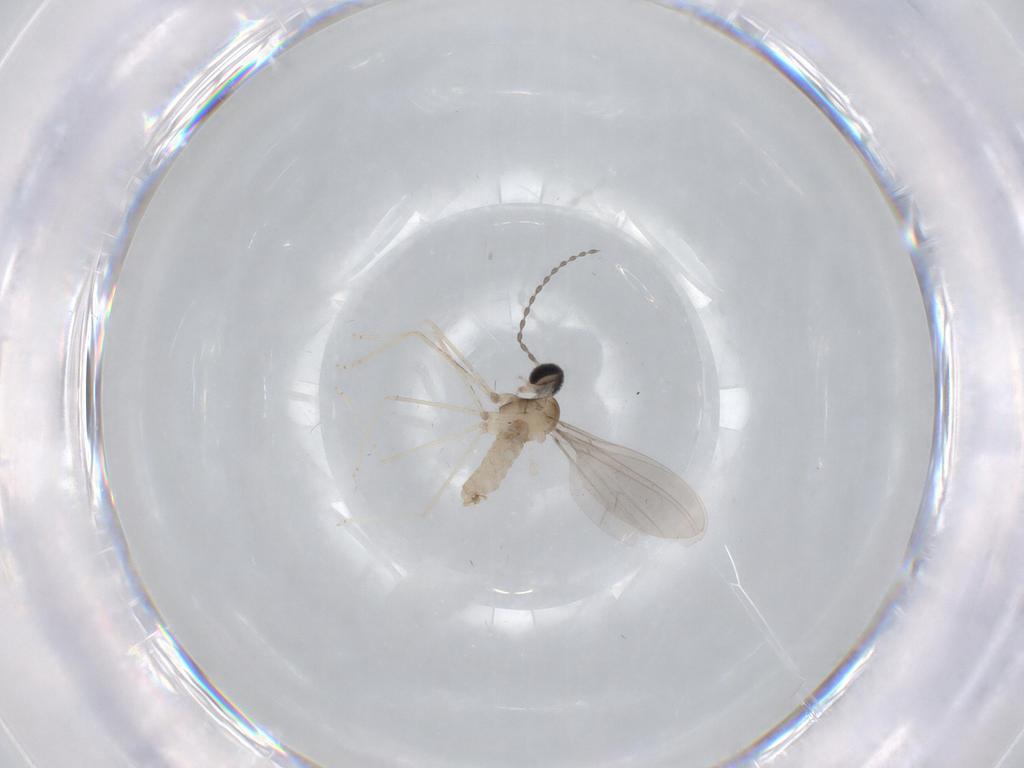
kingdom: Animalia
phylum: Arthropoda
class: Insecta
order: Diptera
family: Cecidomyiidae
